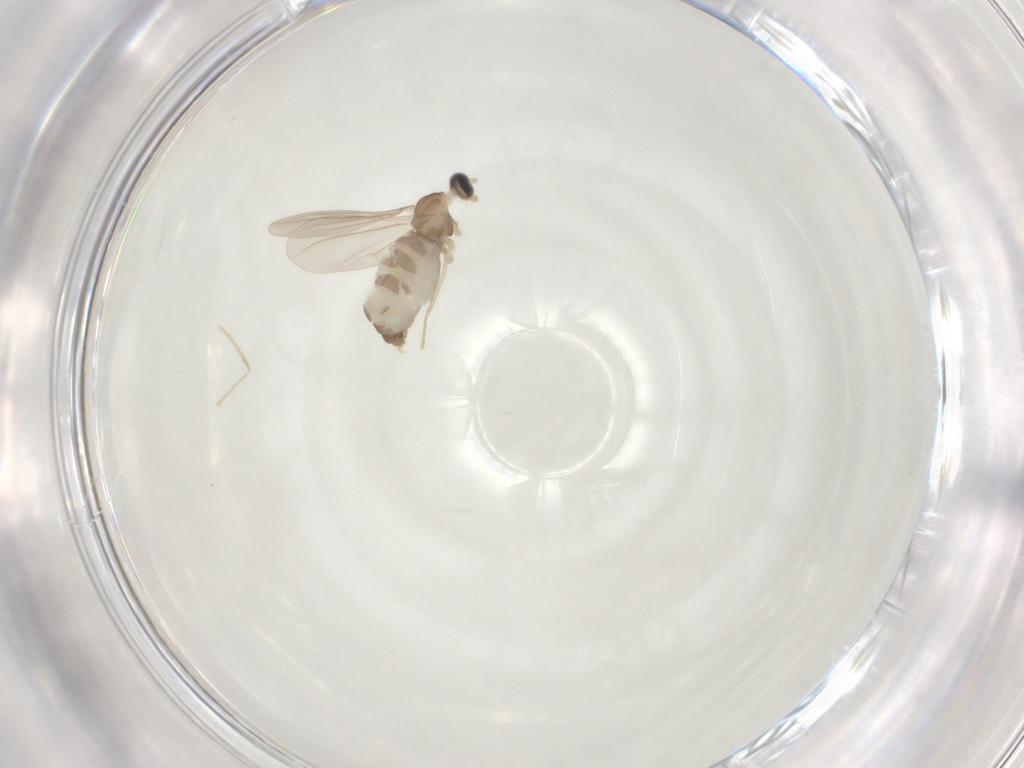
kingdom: Animalia
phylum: Arthropoda
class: Insecta
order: Diptera
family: Cecidomyiidae
